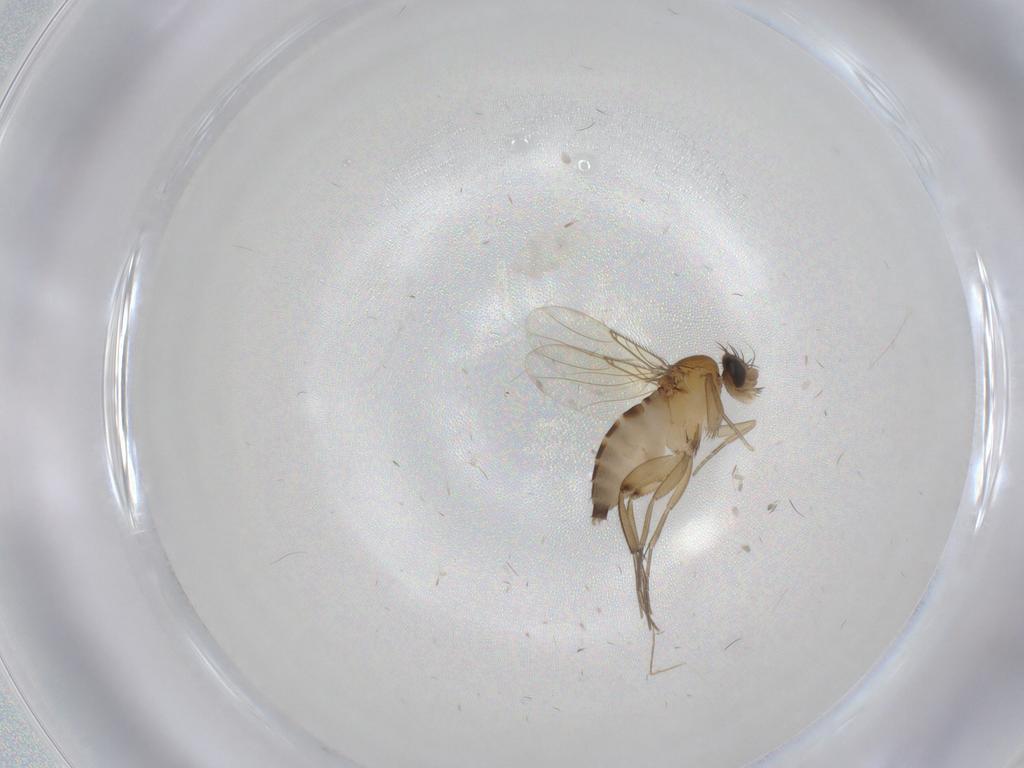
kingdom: Animalia
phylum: Arthropoda
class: Insecta
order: Diptera
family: Phoridae
